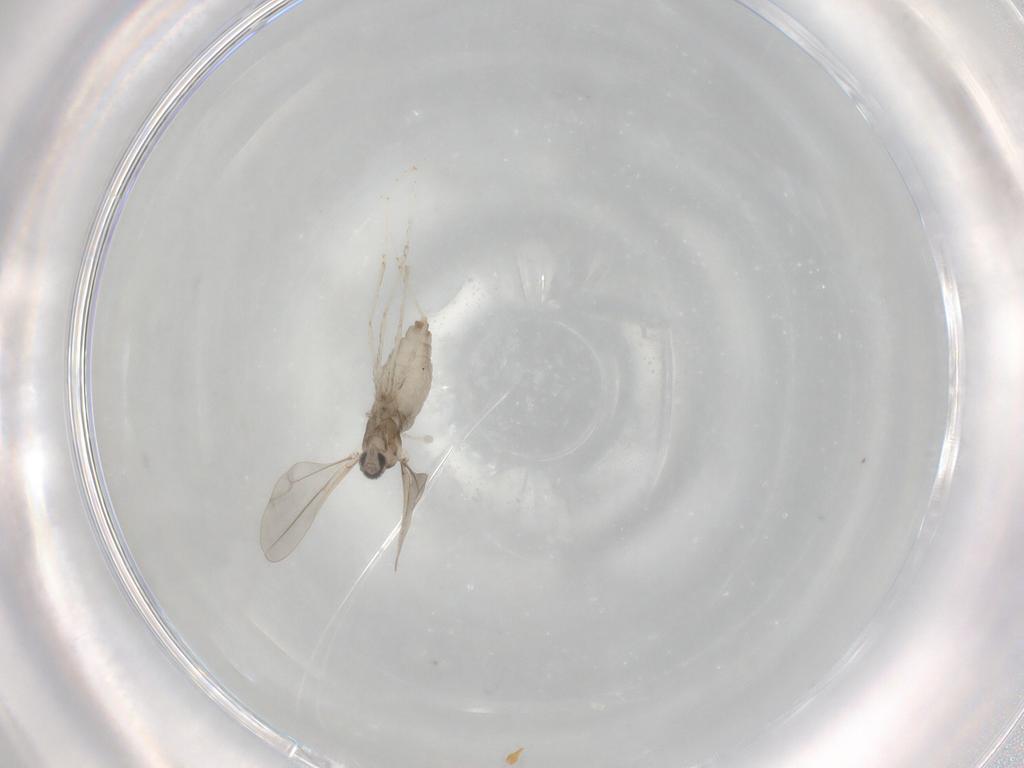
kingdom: Animalia
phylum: Arthropoda
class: Insecta
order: Diptera
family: Cecidomyiidae
